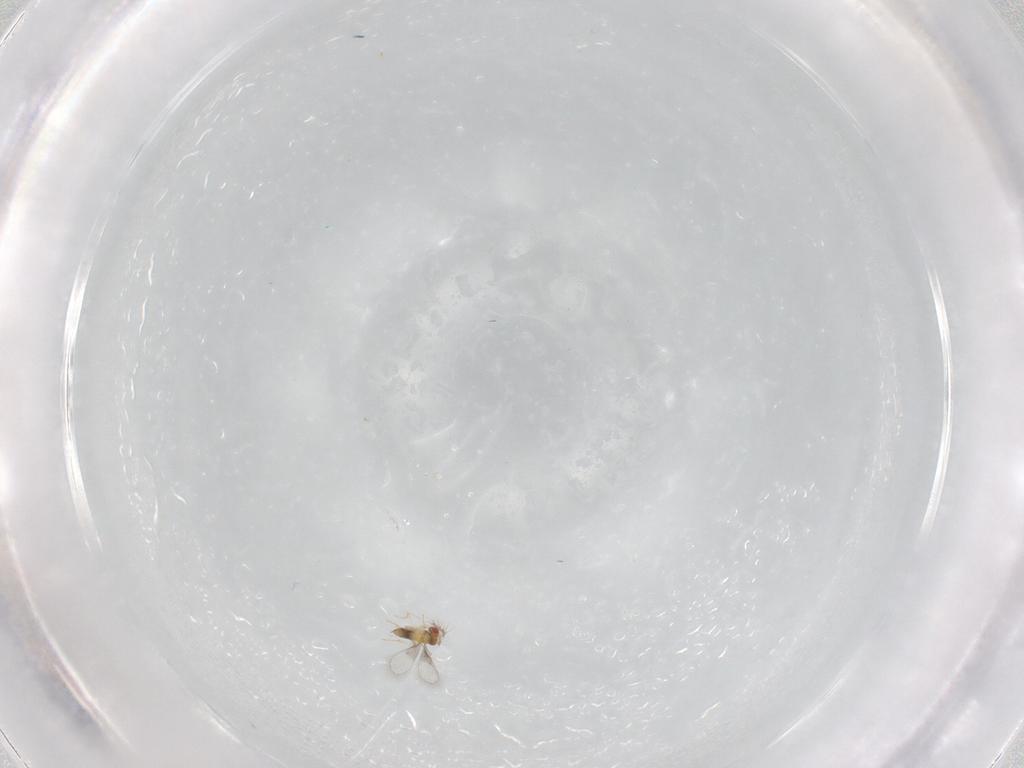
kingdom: Animalia
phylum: Arthropoda
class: Insecta
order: Hymenoptera
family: Trichogrammatidae
